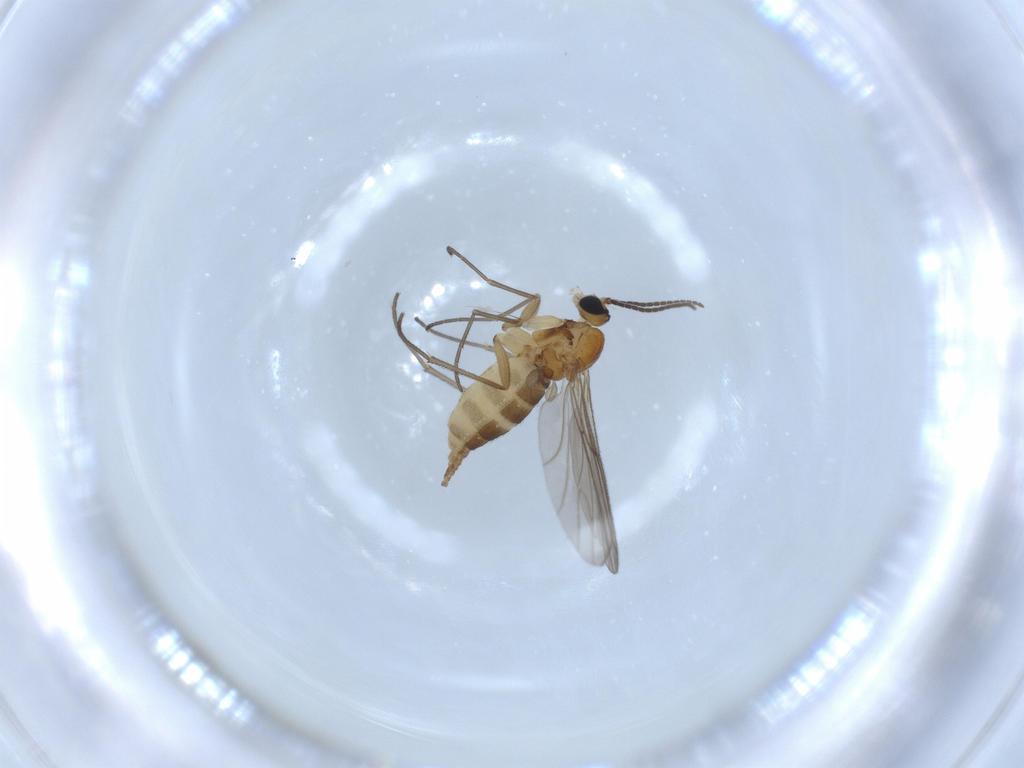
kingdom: Animalia
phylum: Arthropoda
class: Insecta
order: Diptera
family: Sciaridae
